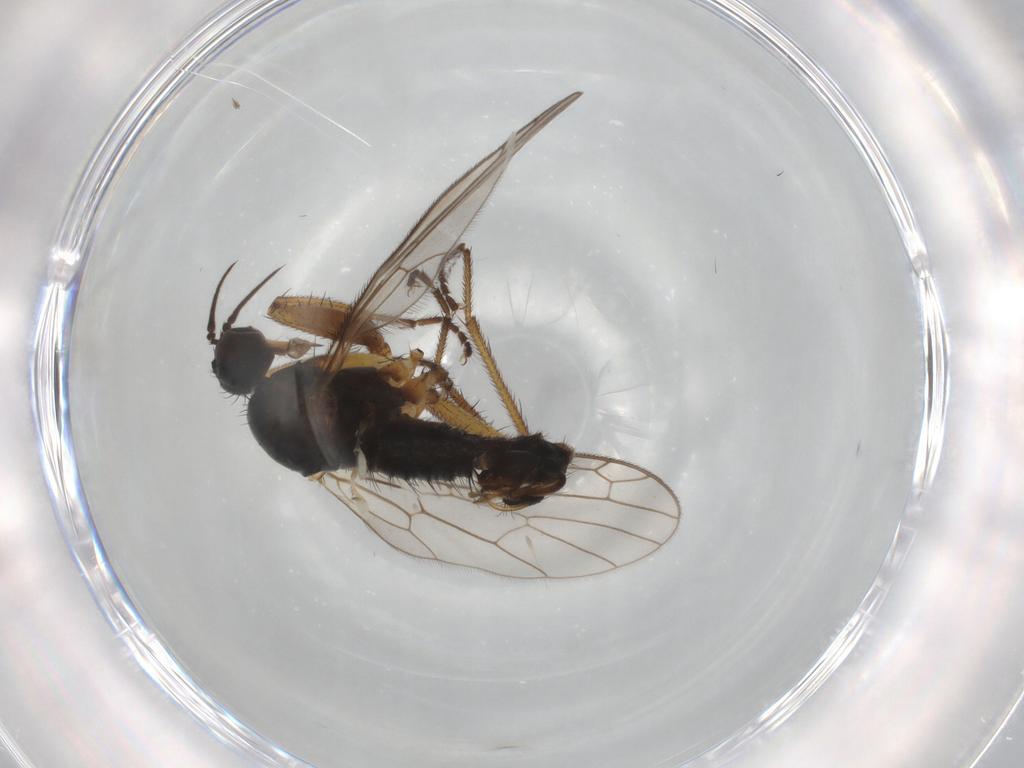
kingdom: Animalia
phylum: Arthropoda
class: Insecta
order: Diptera
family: Empididae
